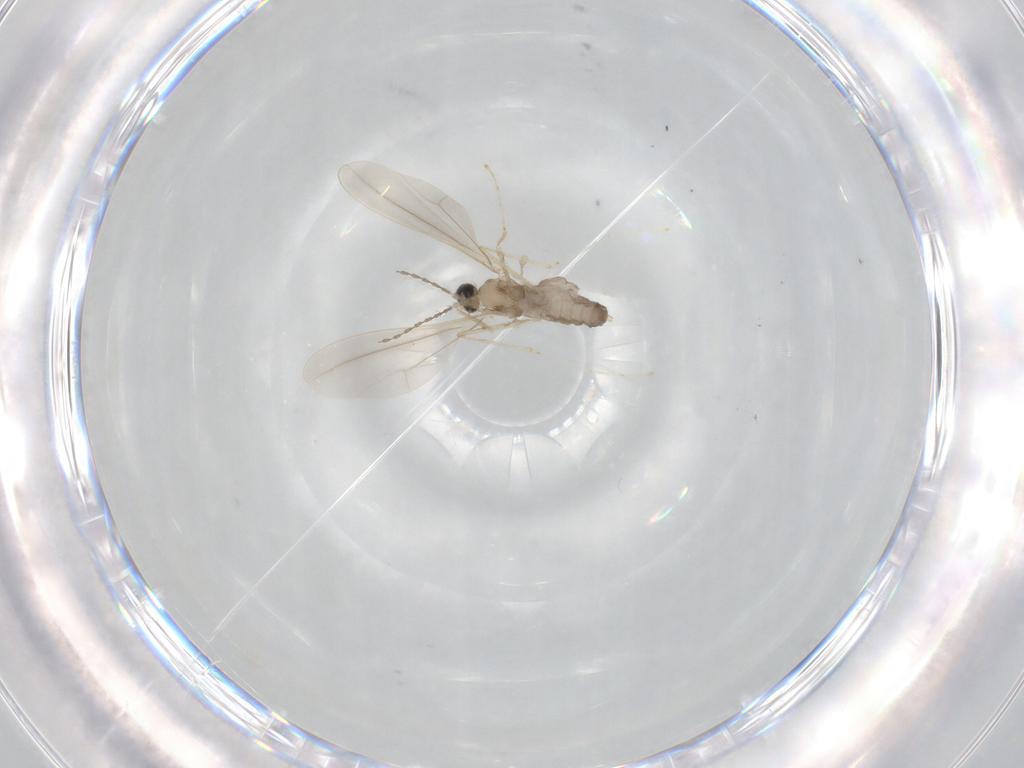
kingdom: Animalia
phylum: Arthropoda
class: Insecta
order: Diptera
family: Cecidomyiidae
